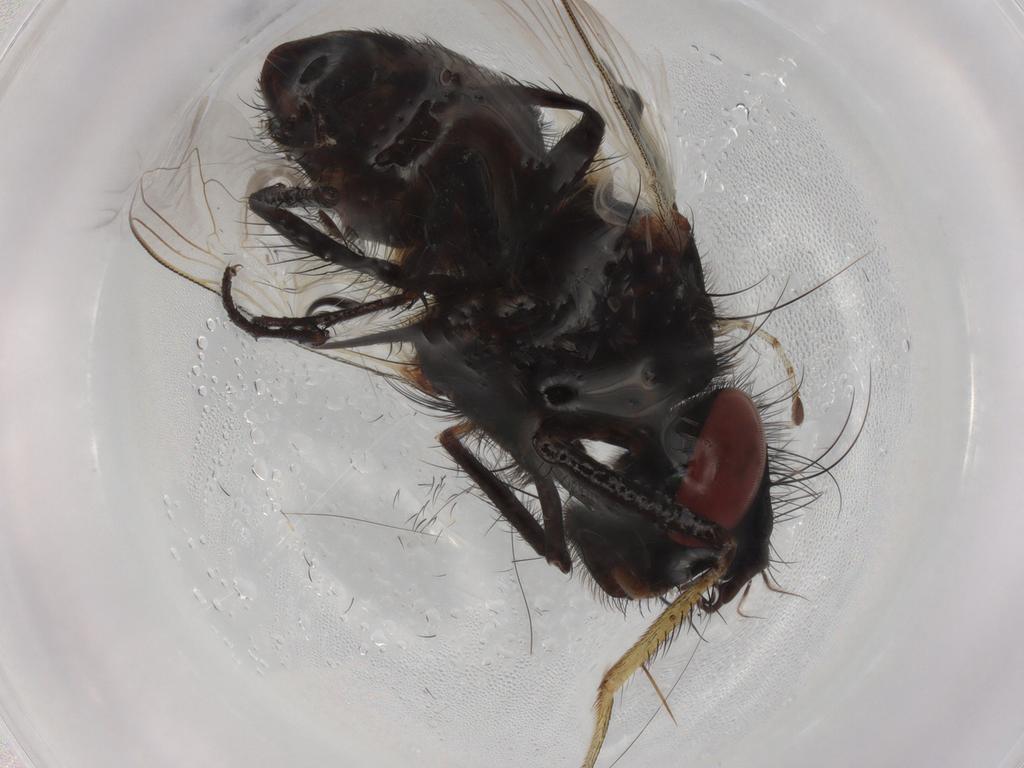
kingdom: Animalia
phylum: Arthropoda
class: Insecta
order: Diptera
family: Sarcophagidae
